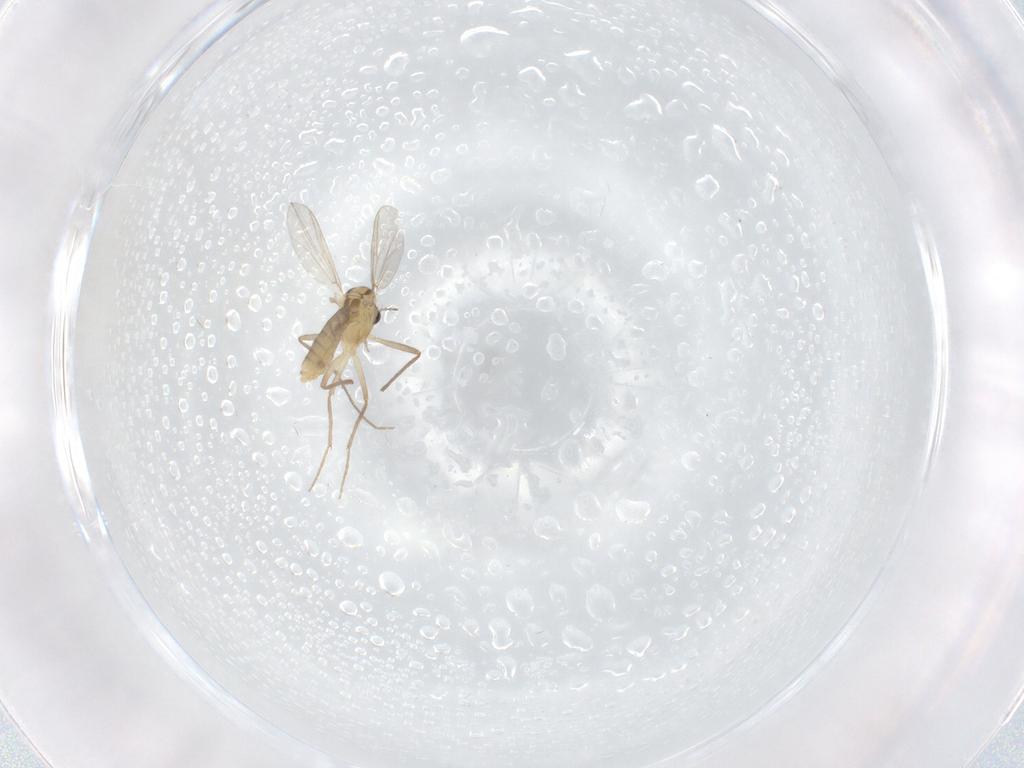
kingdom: Animalia
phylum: Arthropoda
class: Insecta
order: Diptera
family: Chironomidae
